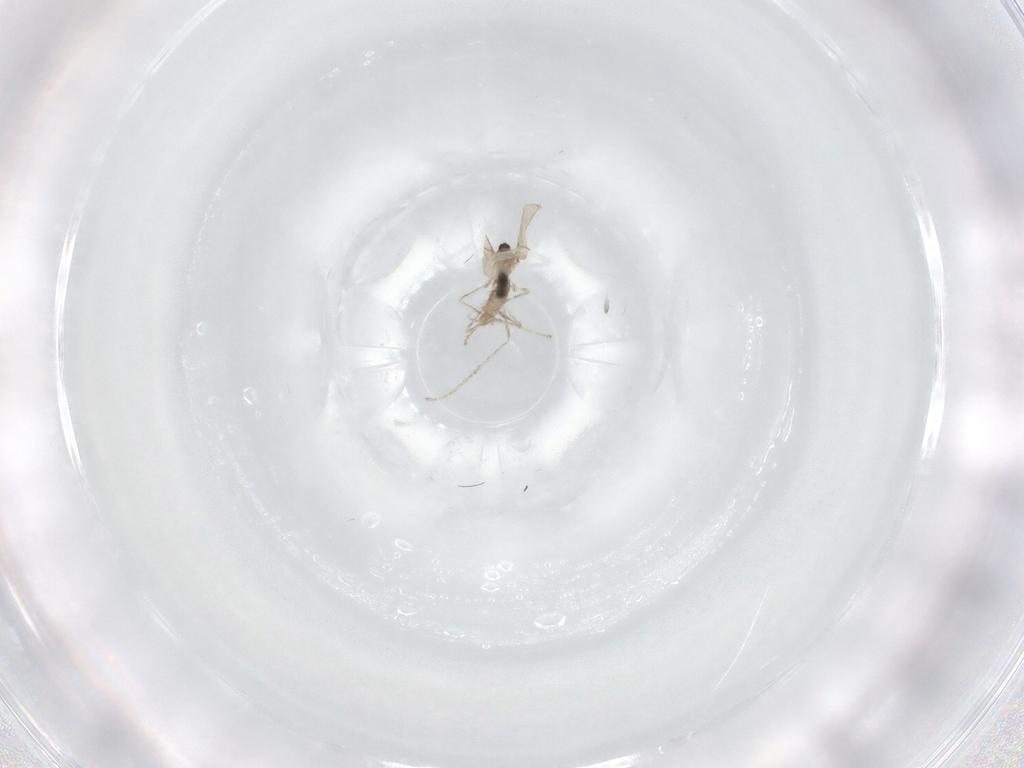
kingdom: Animalia
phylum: Arthropoda
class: Insecta
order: Diptera
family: Cecidomyiidae
